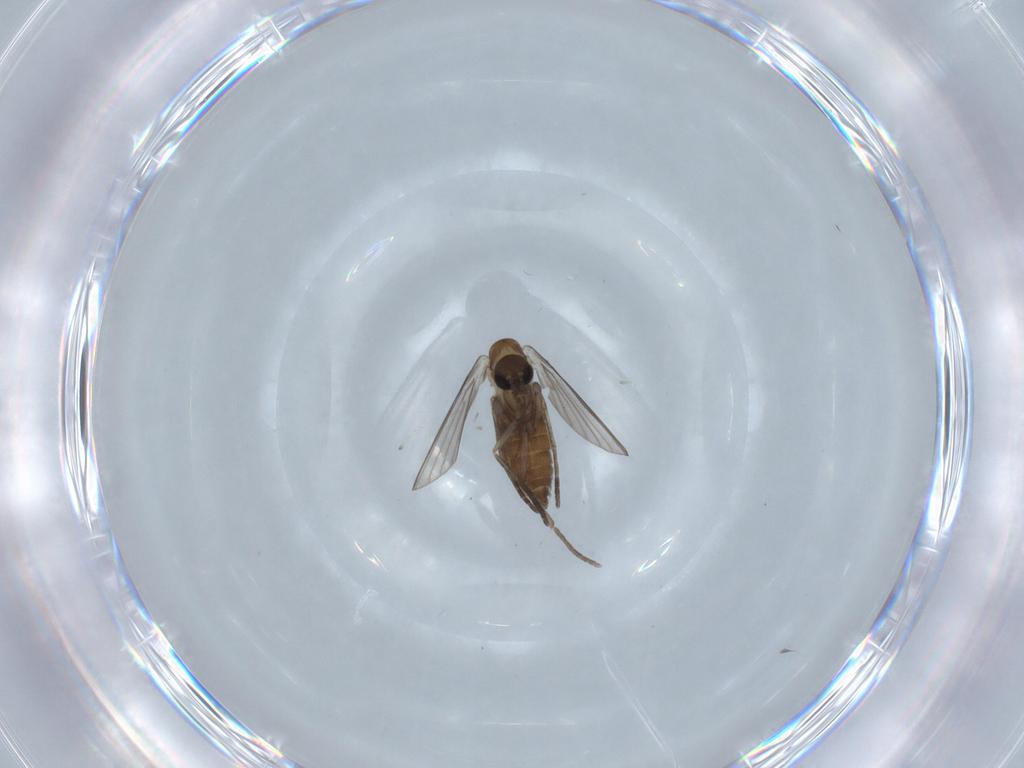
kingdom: Animalia
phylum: Arthropoda
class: Insecta
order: Diptera
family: Psychodidae
